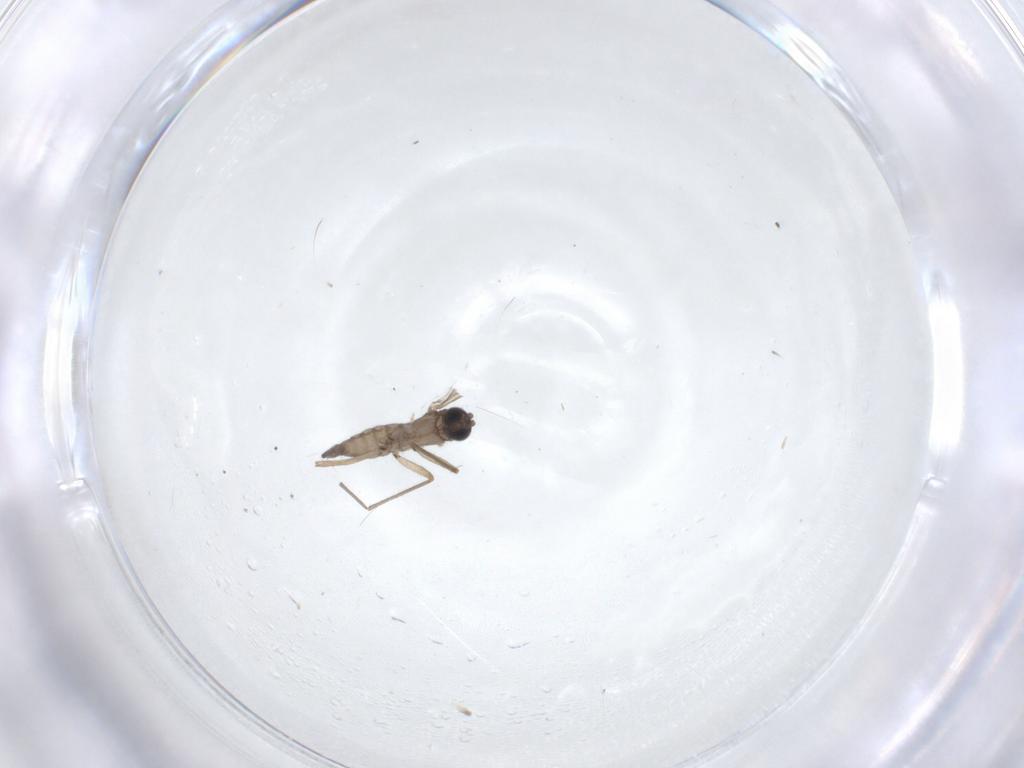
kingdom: Animalia
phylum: Arthropoda
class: Insecta
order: Diptera
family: Sciaridae
